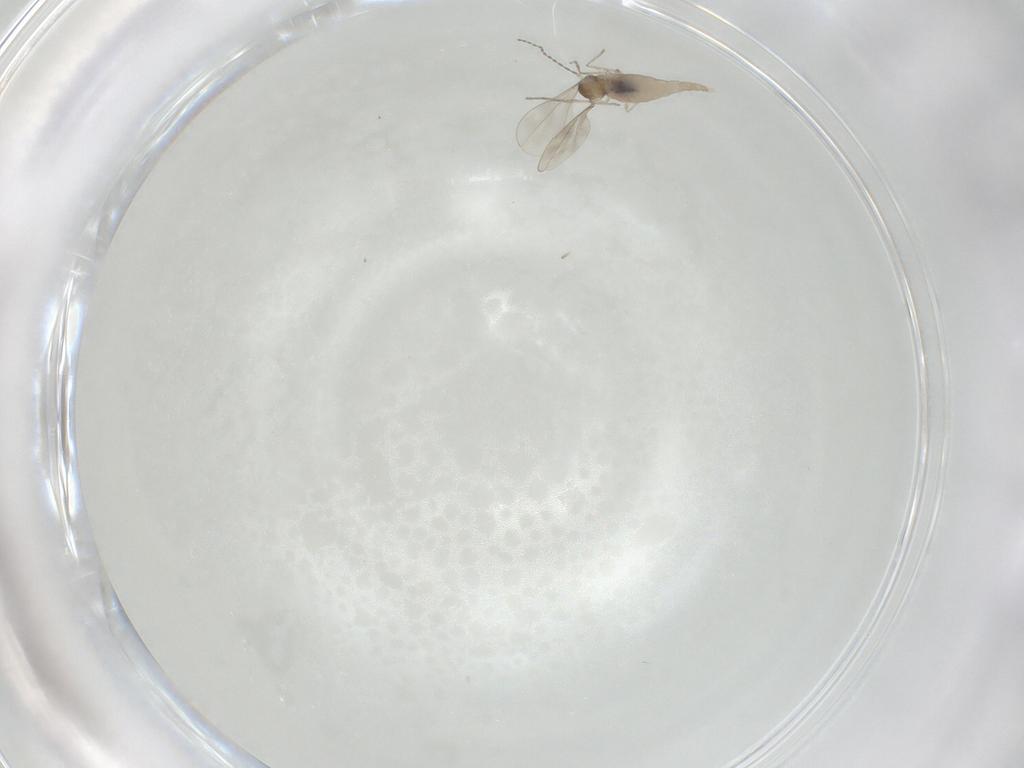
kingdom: Animalia
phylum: Arthropoda
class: Insecta
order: Diptera
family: Cecidomyiidae
